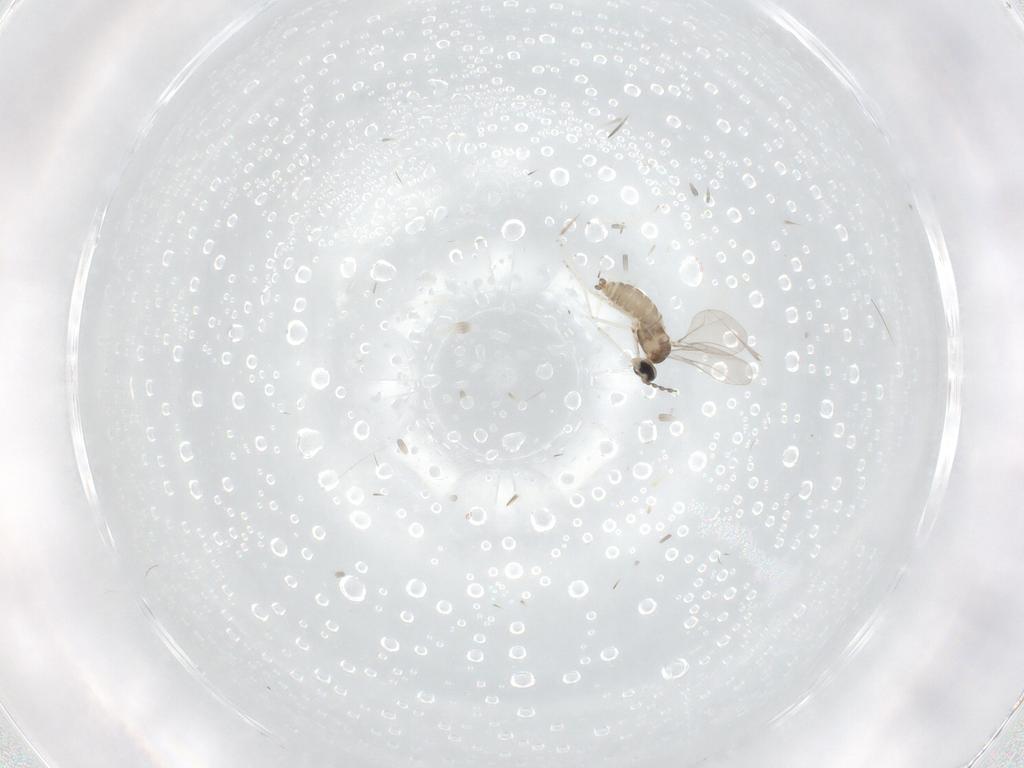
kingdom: Animalia
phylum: Arthropoda
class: Insecta
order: Diptera
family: Cecidomyiidae
